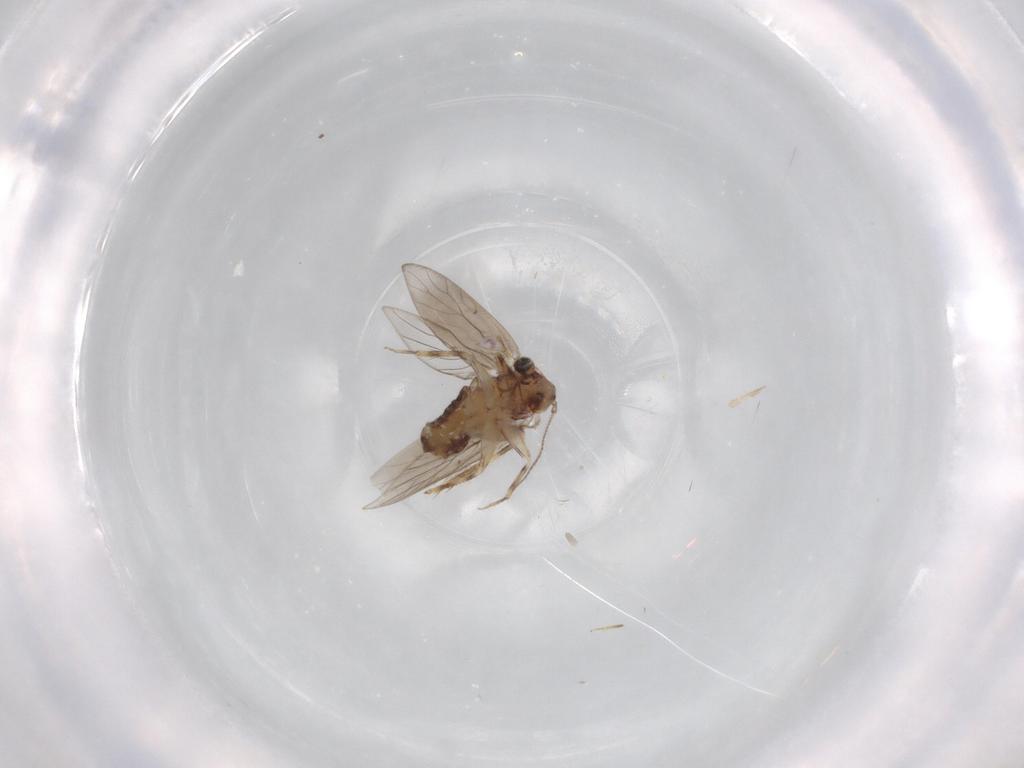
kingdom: Animalia
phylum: Arthropoda
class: Insecta
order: Psocodea
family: Lepidopsocidae
